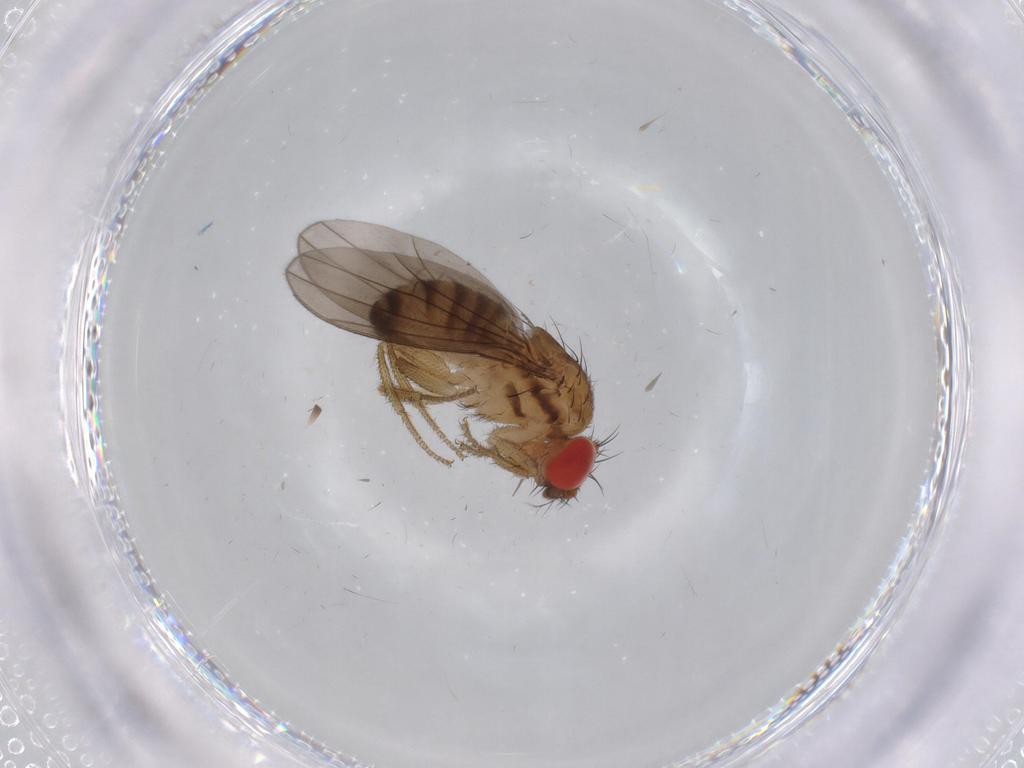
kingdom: Animalia
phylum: Arthropoda
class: Insecta
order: Diptera
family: Drosophilidae
